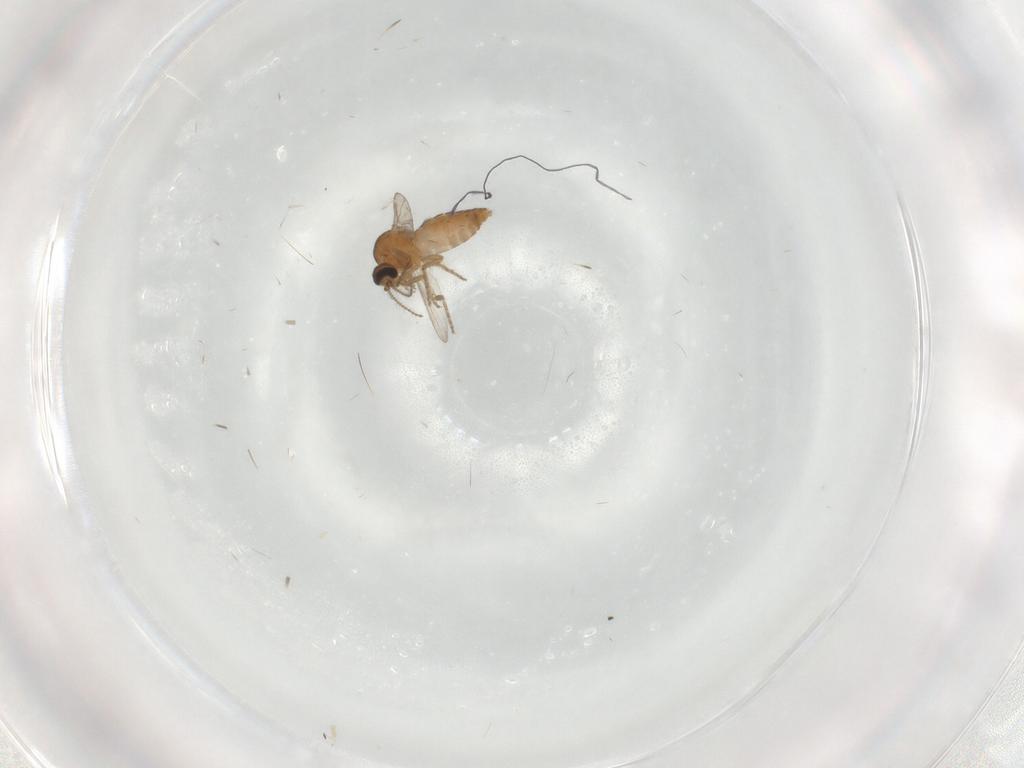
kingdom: Animalia
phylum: Arthropoda
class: Insecta
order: Diptera
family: Ceratopogonidae
